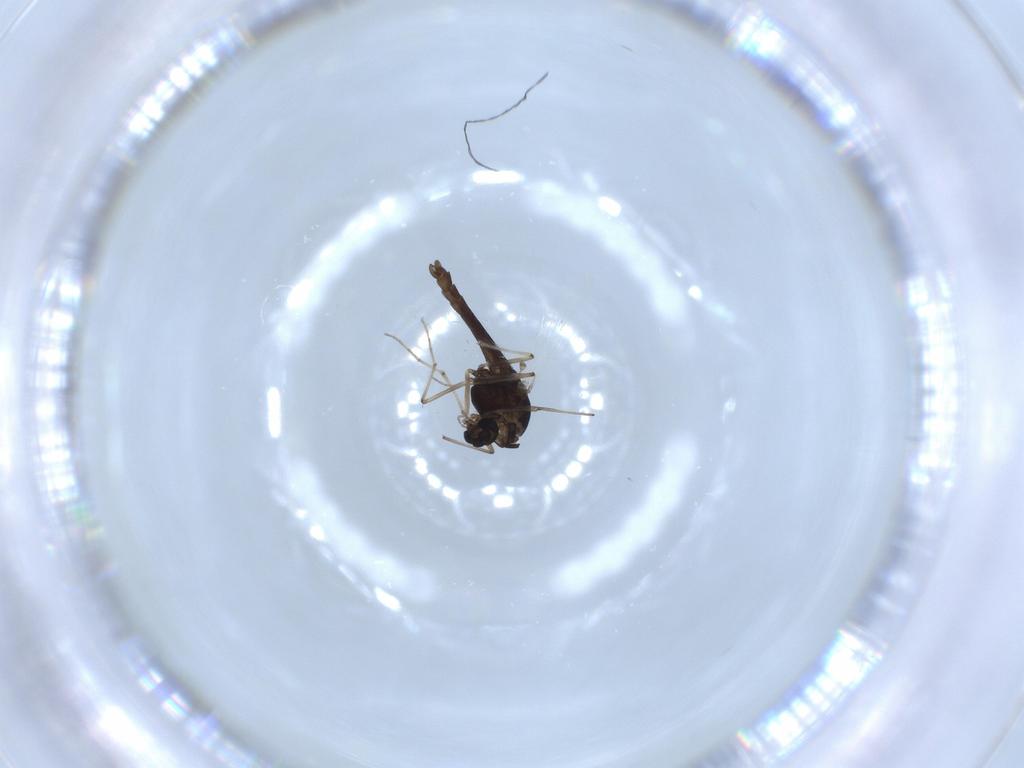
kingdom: Animalia
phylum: Arthropoda
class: Insecta
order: Diptera
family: Chironomidae
